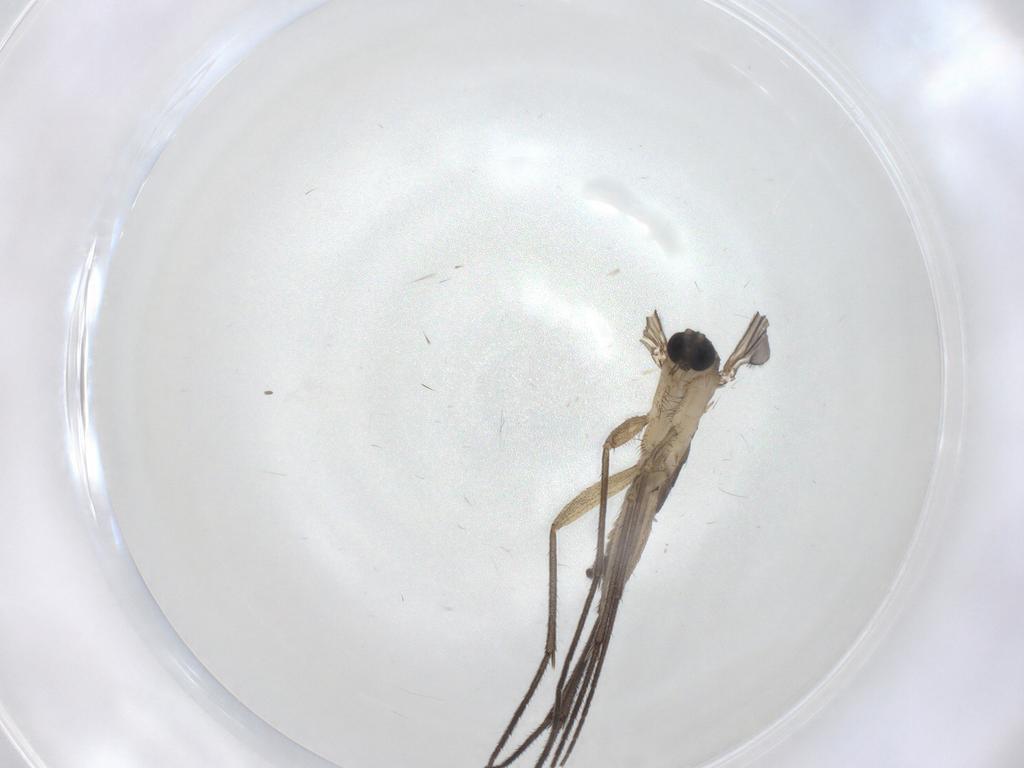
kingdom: Animalia
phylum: Arthropoda
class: Insecta
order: Diptera
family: Sciaridae
